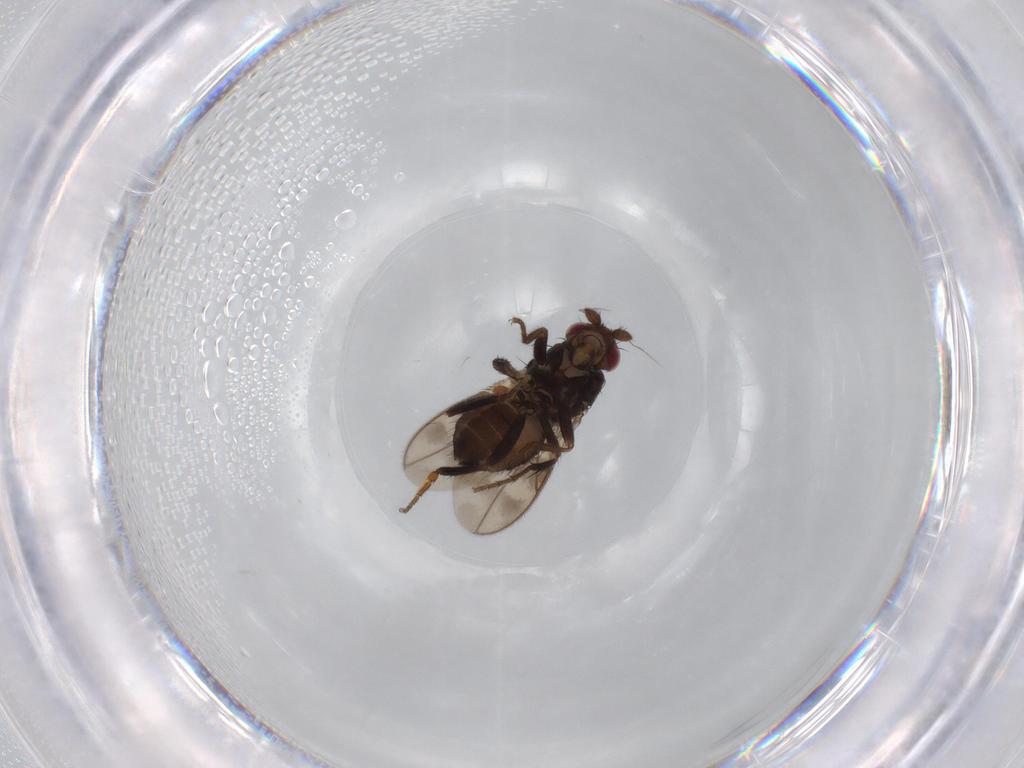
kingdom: Animalia
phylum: Arthropoda
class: Insecta
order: Diptera
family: Sphaeroceridae
